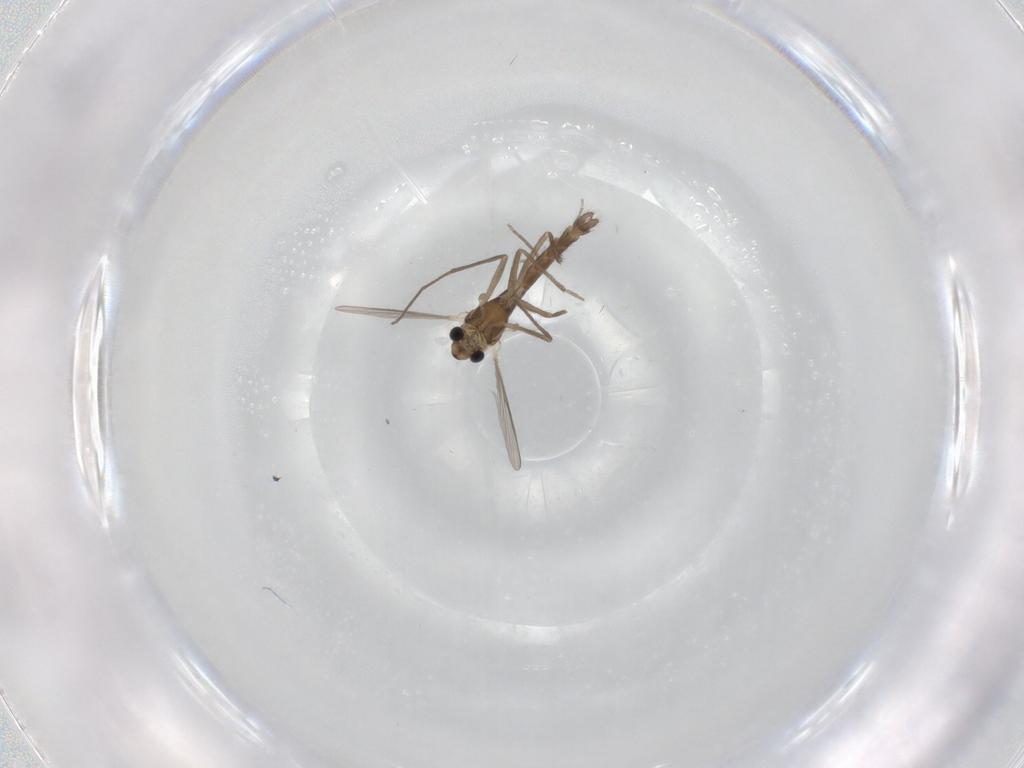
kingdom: Animalia
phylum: Arthropoda
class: Insecta
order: Diptera
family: Chironomidae
